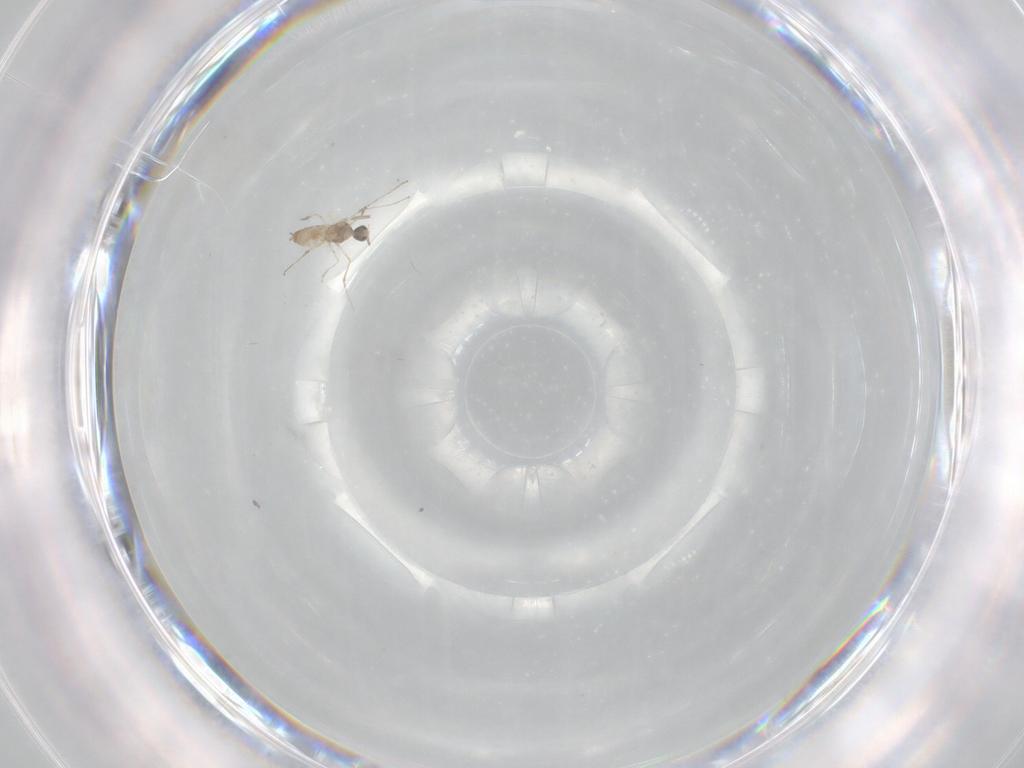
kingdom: Animalia
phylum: Arthropoda
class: Insecta
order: Diptera
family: Cecidomyiidae
